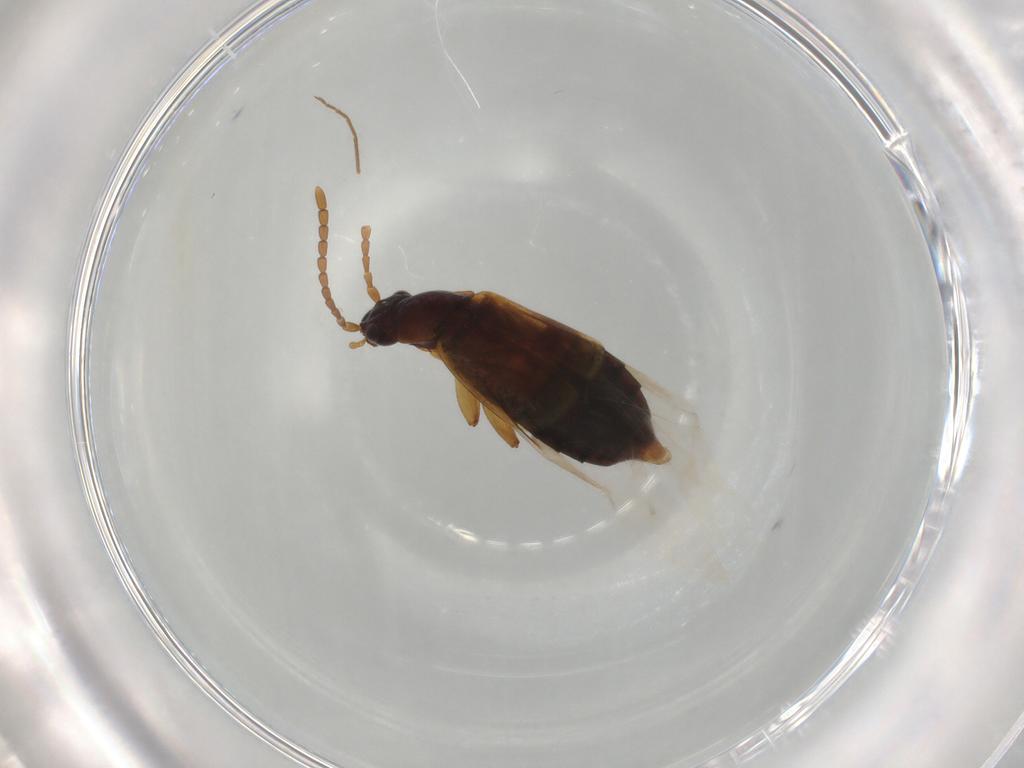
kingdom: Animalia
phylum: Arthropoda
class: Insecta
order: Coleoptera
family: Staphylinidae
